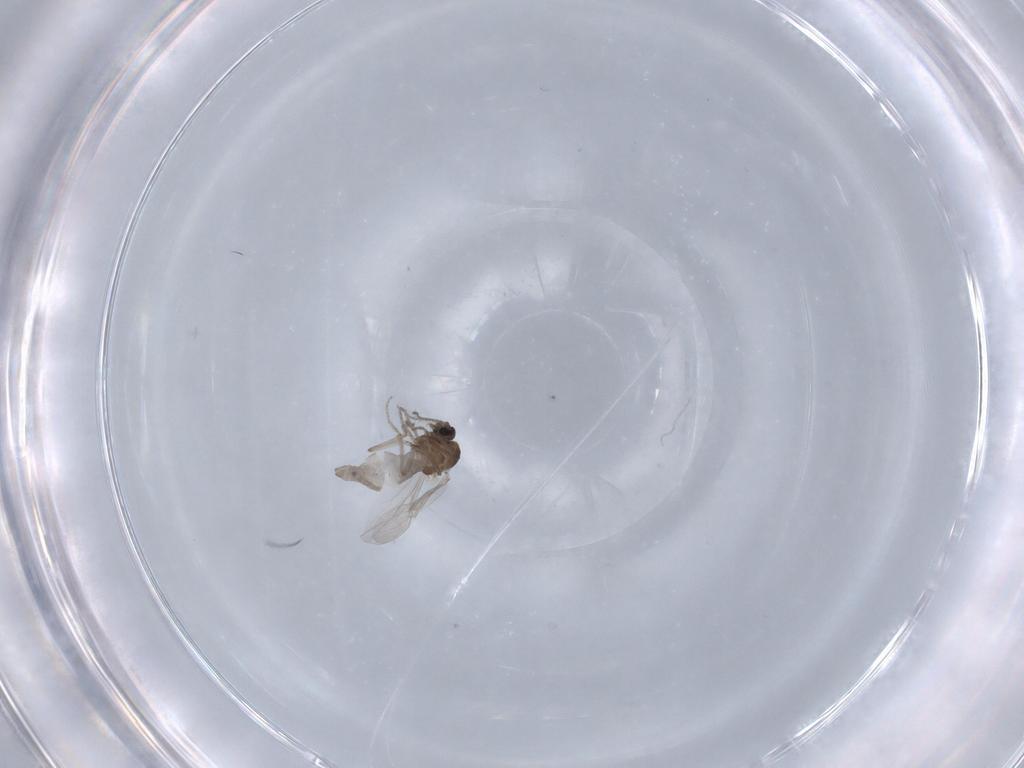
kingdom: Animalia
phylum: Arthropoda
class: Insecta
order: Diptera
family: Ceratopogonidae
